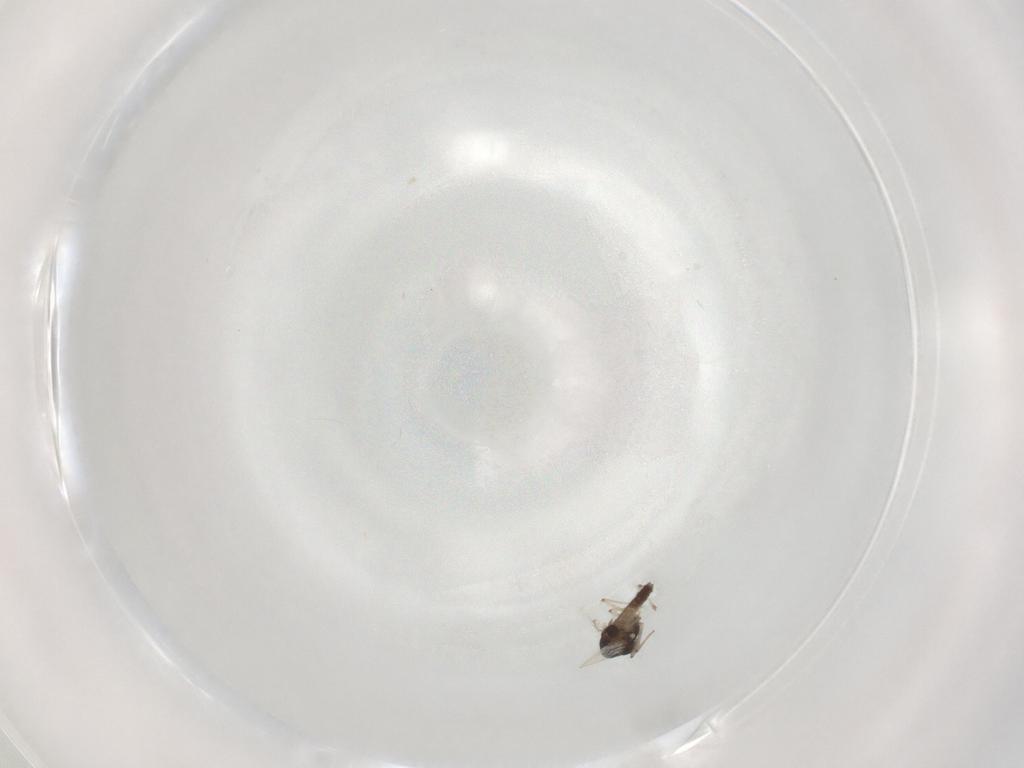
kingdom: Animalia
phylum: Arthropoda
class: Insecta
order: Diptera
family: Chironomidae
